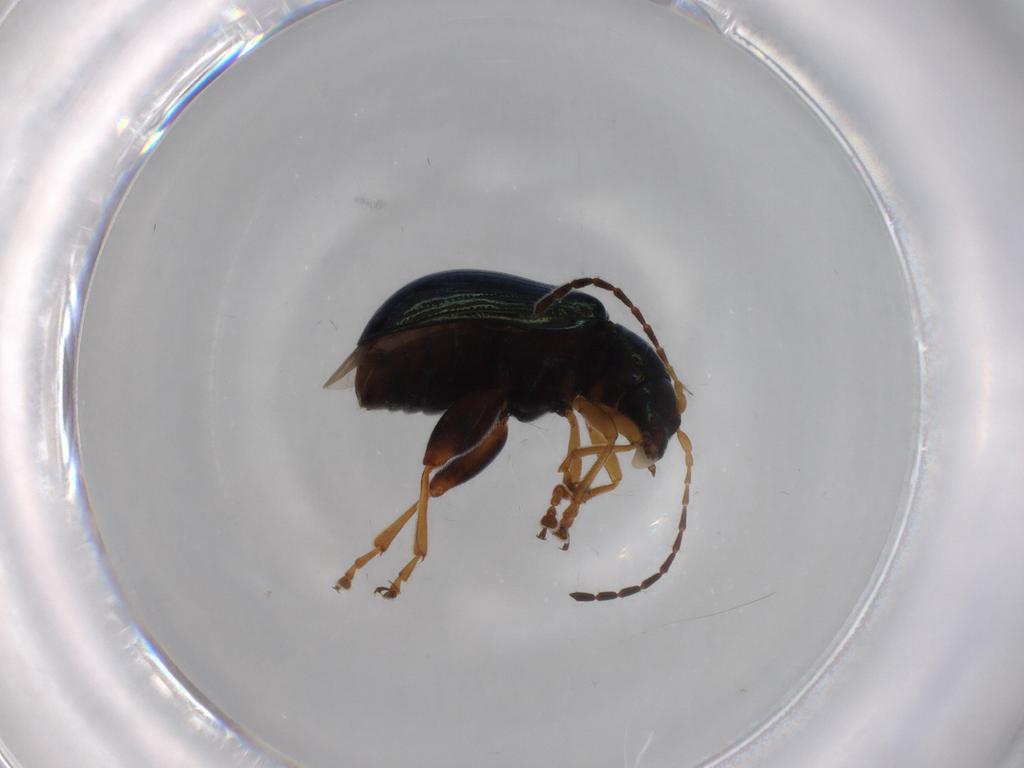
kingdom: Animalia
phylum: Arthropoda
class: Insecta
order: Coleoptera
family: Chrysomelidae
